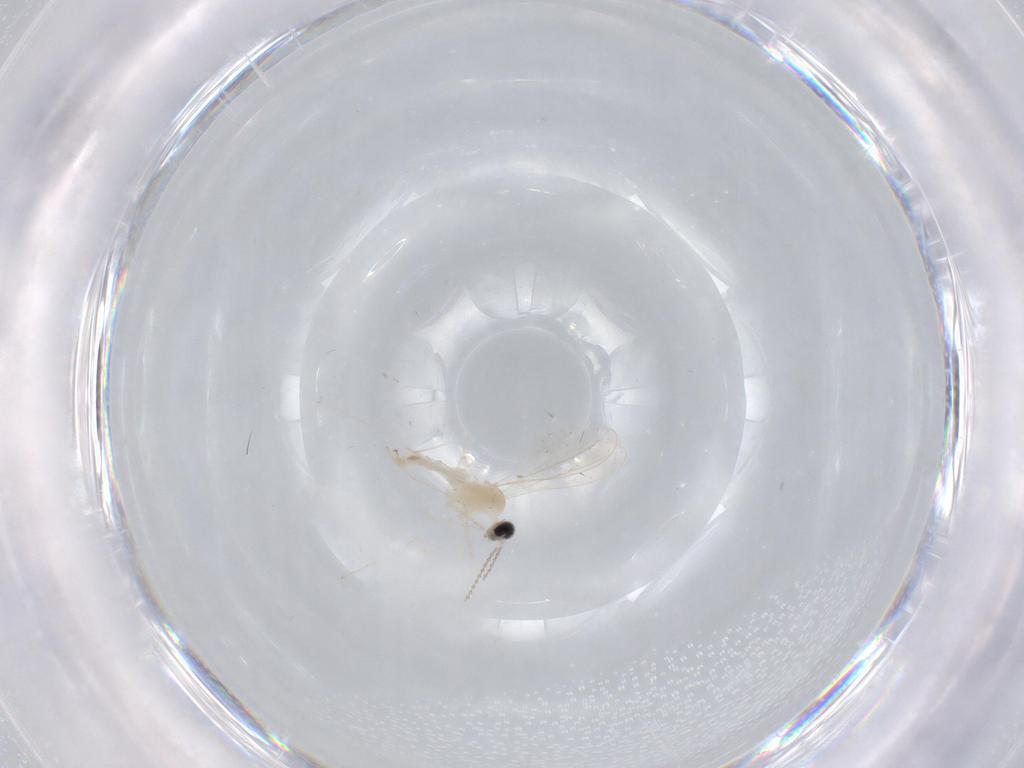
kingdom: Animalia
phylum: Arthropoda
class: Insecta
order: Diptera
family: Cecidomyiidae
